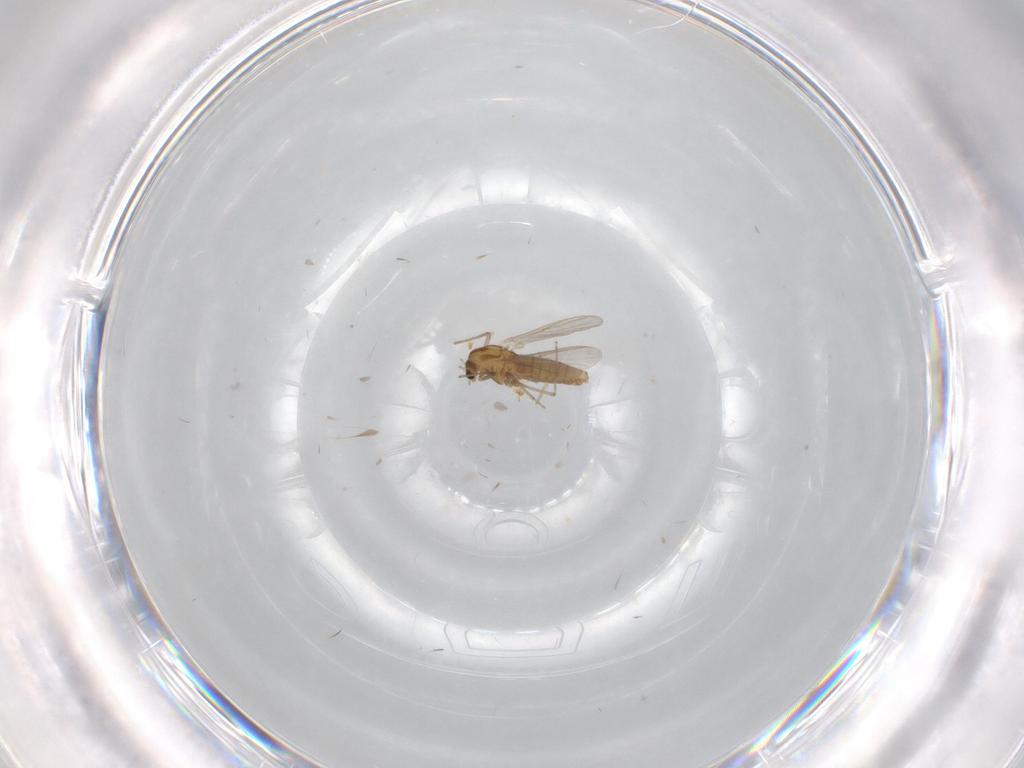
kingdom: Animalia
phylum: Arthropoda
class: Insecta
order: Diptera
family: Chironomidae
